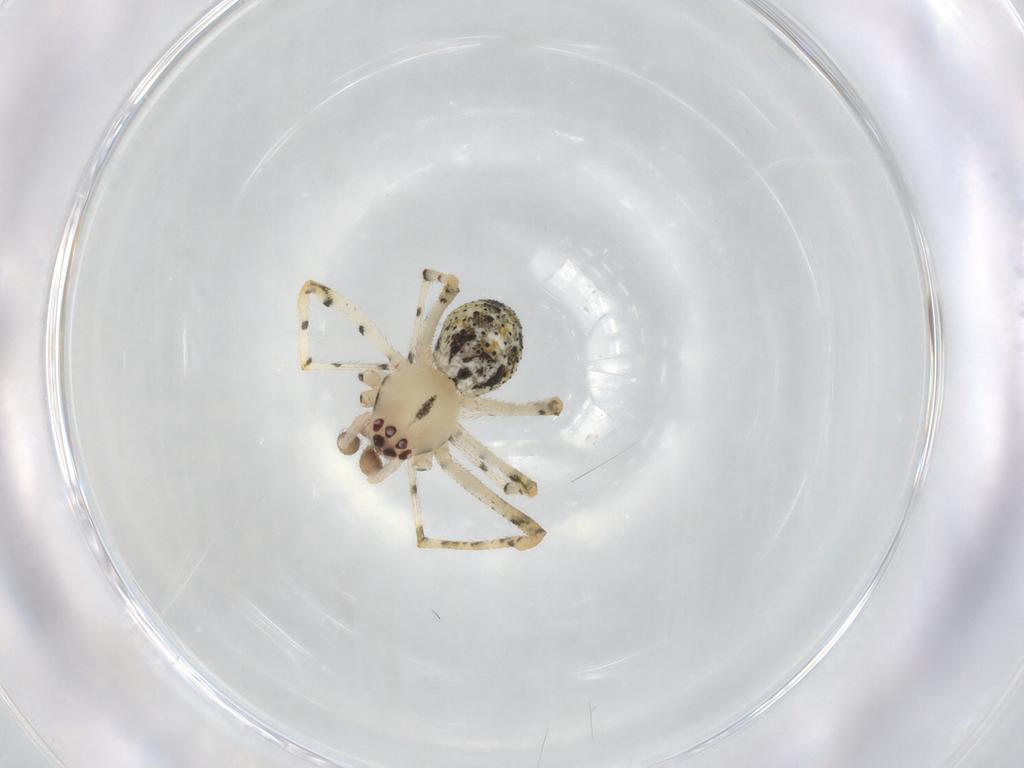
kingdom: Animalia
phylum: Arthropoda
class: Arachnida
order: Araneae
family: Theridiidae
